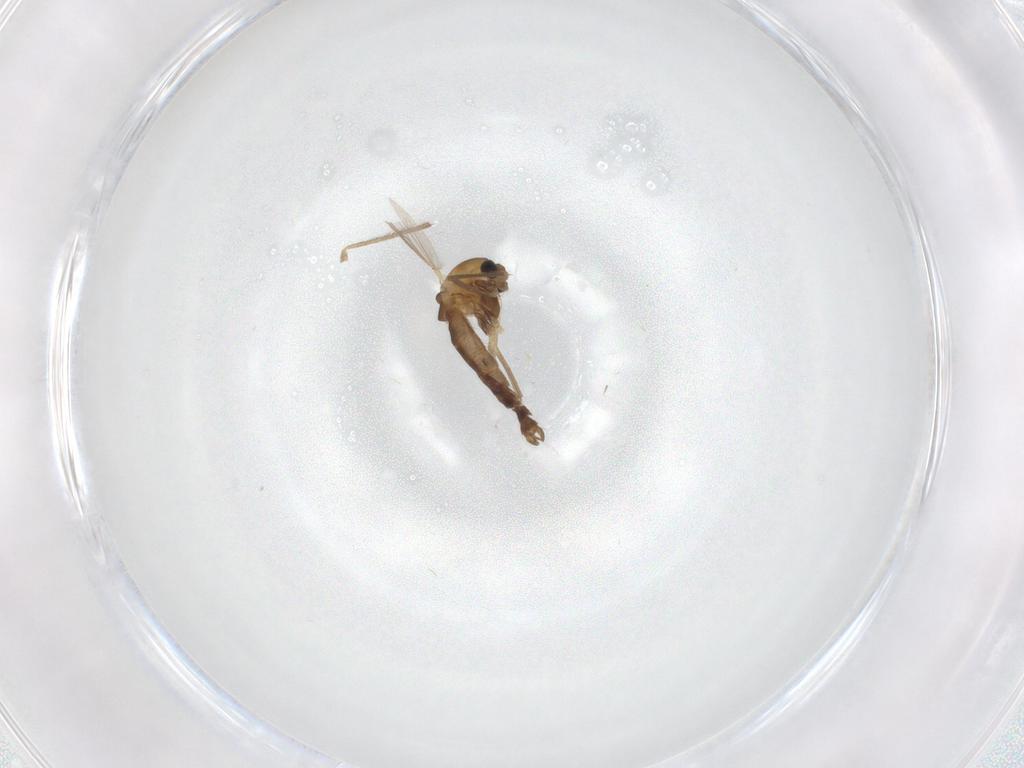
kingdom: Animalia
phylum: Arthropoda
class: Insecta
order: Diptera
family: Chironomidae
